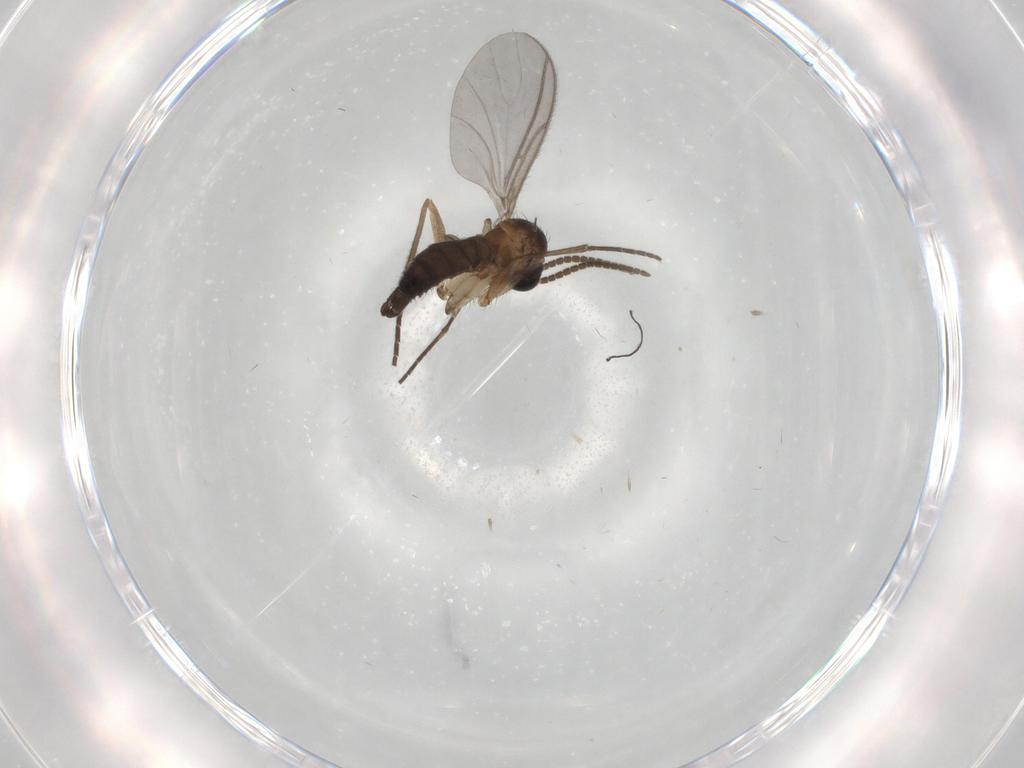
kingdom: Animalia
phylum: Arthropoda
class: Insecta
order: Diptera
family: Cecidomyiidae
